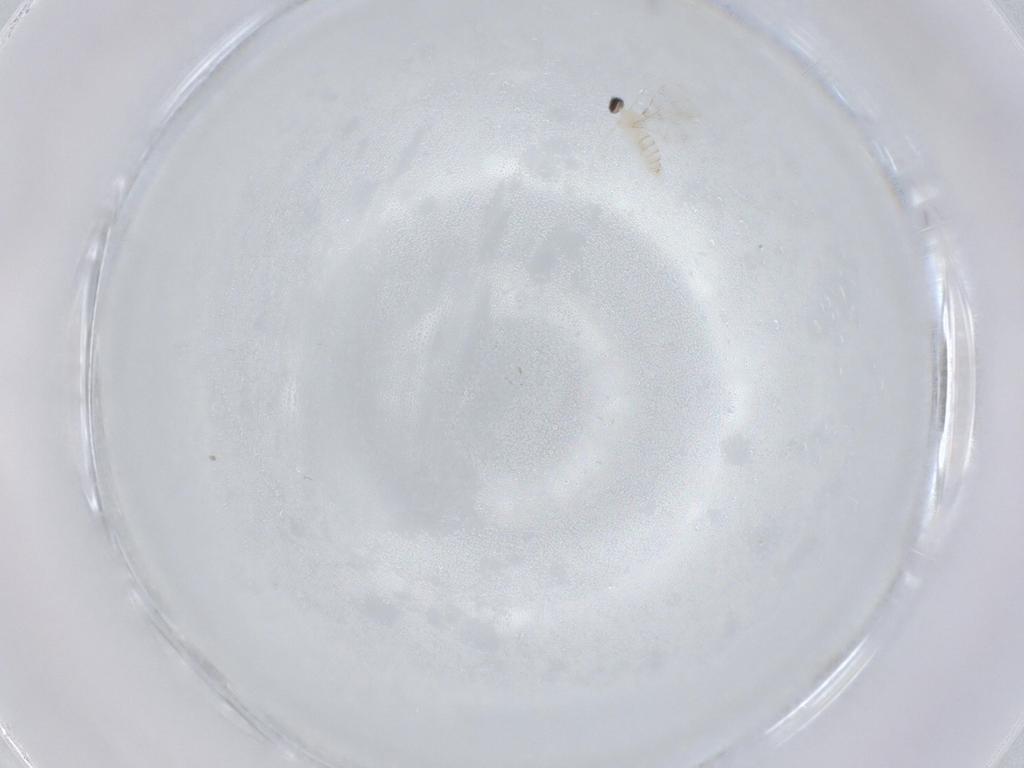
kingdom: Animalia
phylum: Arthropoda
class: Insecta
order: Diptera
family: Cecidomyiidae
